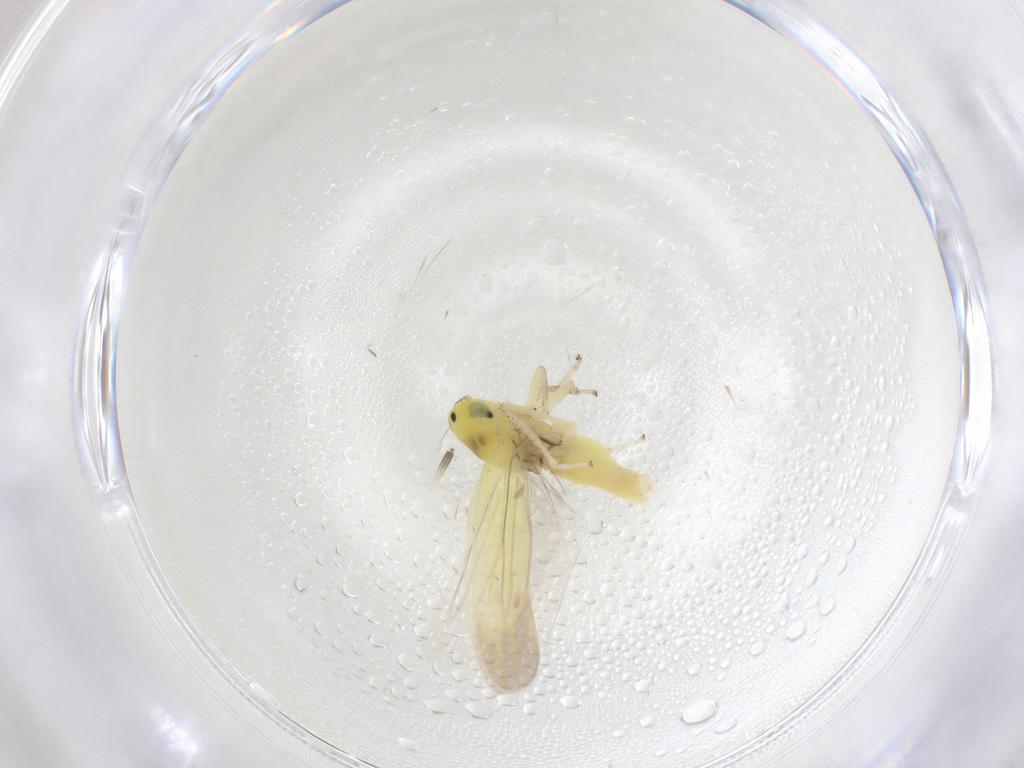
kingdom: Animalia
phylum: Arthropoda
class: Insecta
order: Hemiptera
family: Cicadellidae
